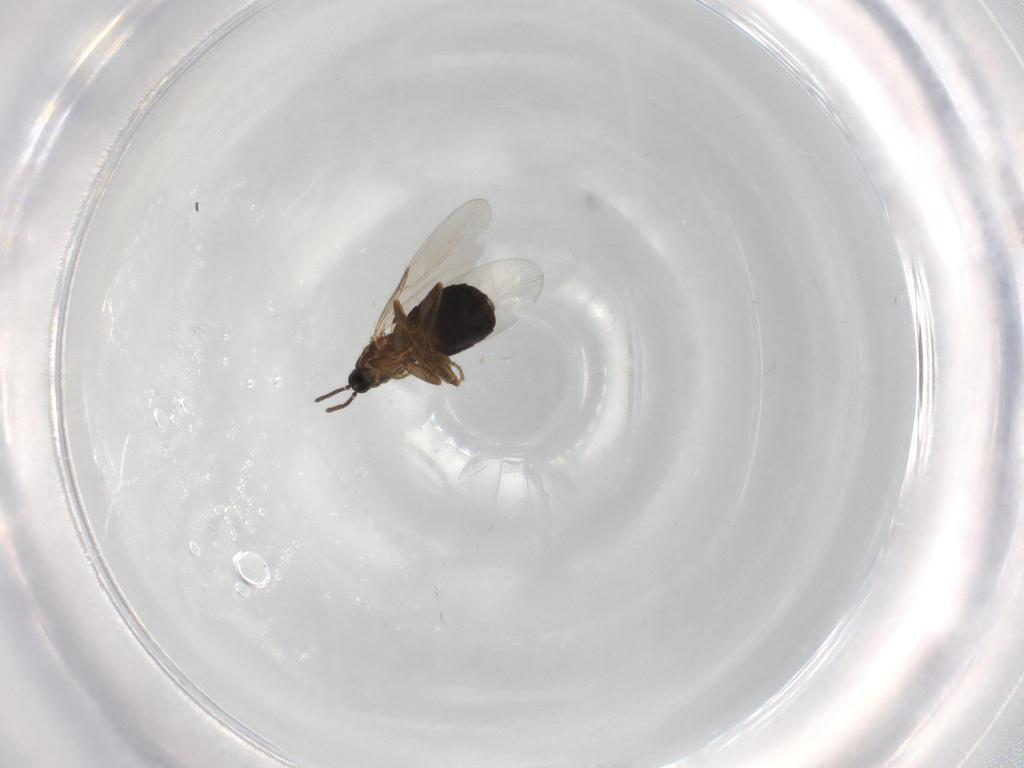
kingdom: Animalia
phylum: Arthropoda
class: Insecta
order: Diptera
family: Scatopsidae
